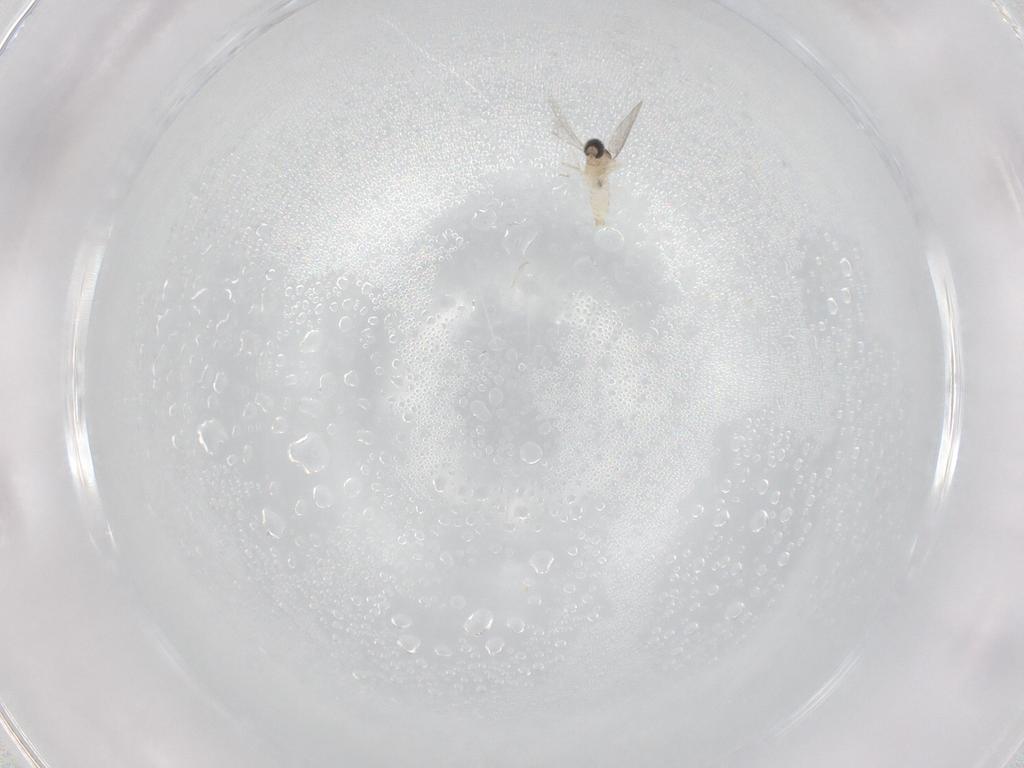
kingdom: Animalia
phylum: Arthropoda
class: Insecta
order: Diptera
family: Cecidomyiidae
